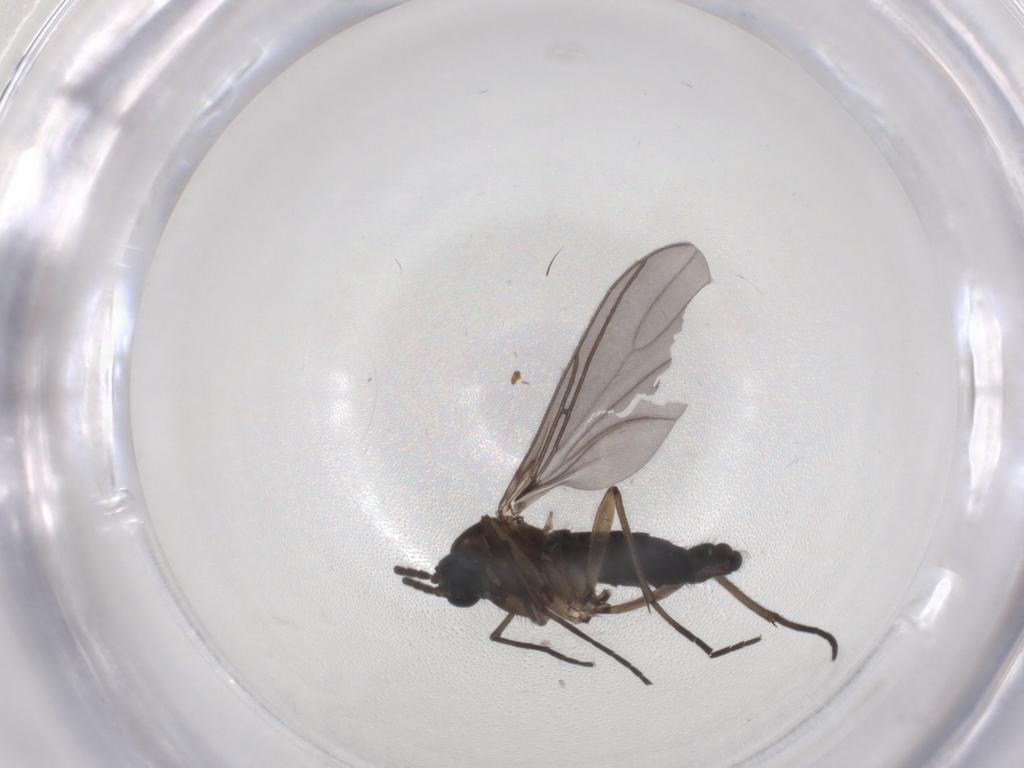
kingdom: Animalia
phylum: Arthropoda
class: Insecta
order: Diptera
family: Sciaridae
